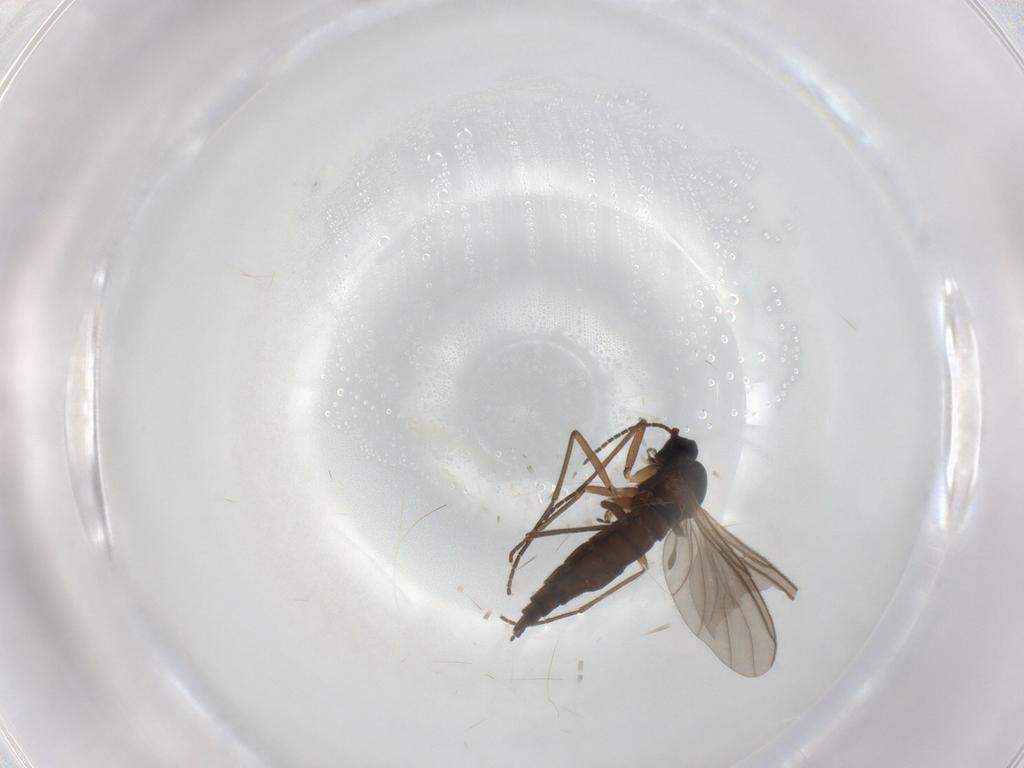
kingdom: Animalia
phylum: Arthropoda
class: Insecta
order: Diptera
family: Sciaridae
